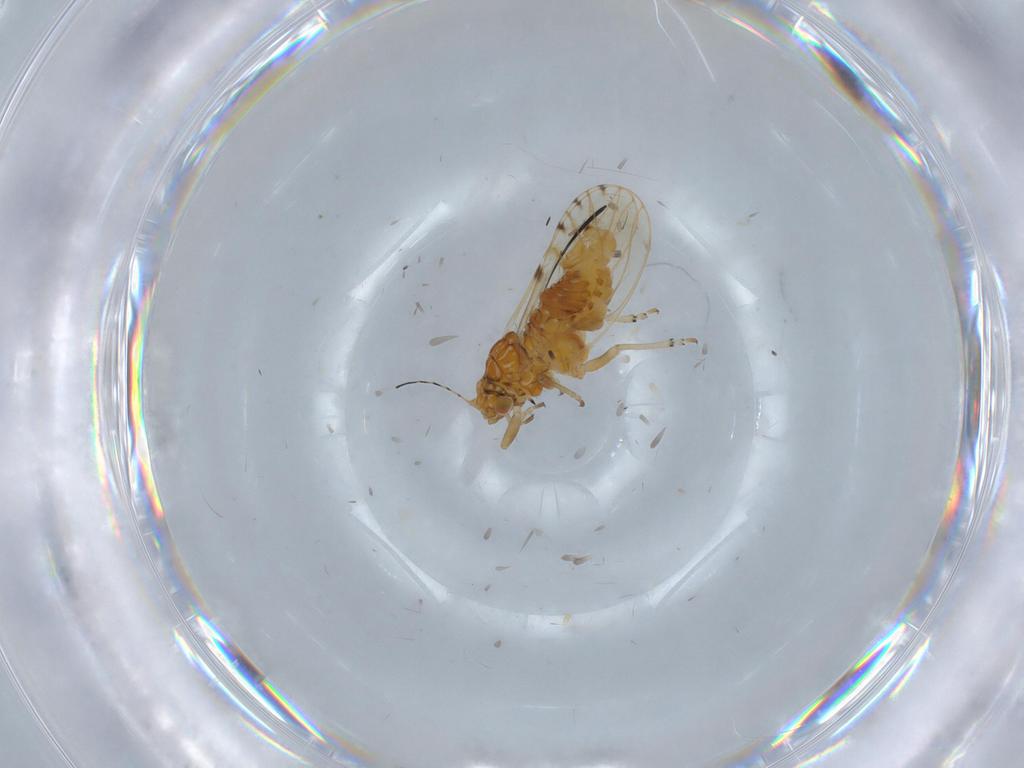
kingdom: Animalia
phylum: Arthropoda
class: Insecta
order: Hemiptera
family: Psylloidea_incertae_sedis
